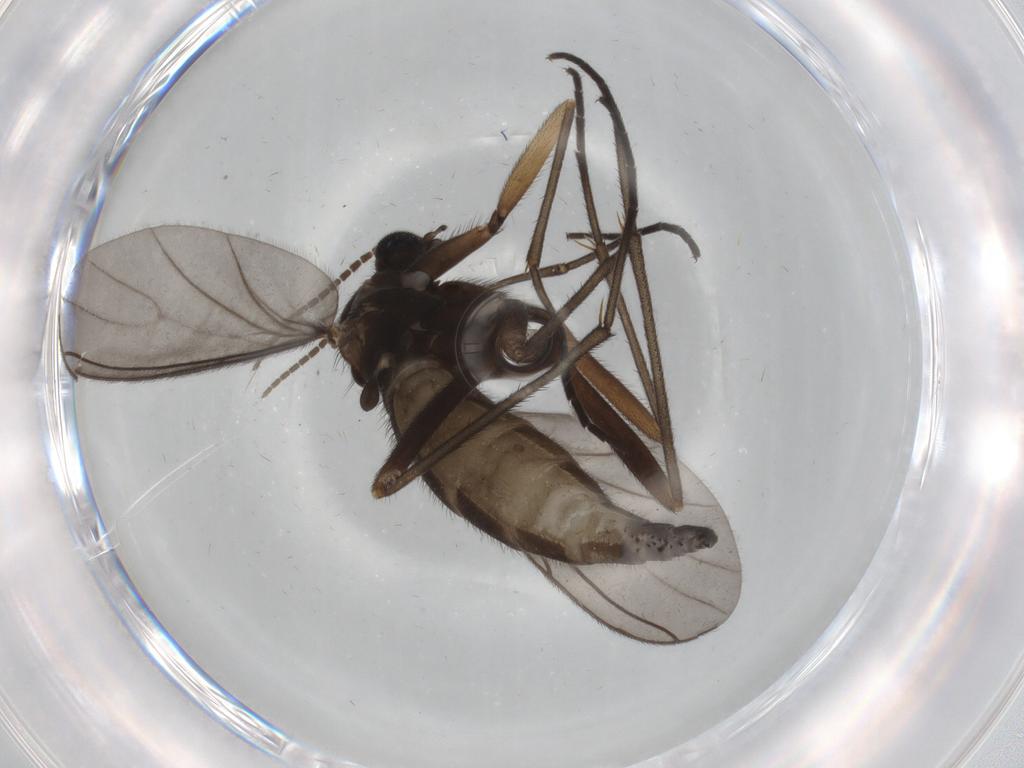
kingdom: Animalia
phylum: Arthropoda
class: Insecta
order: Diptera
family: Sciaridae
